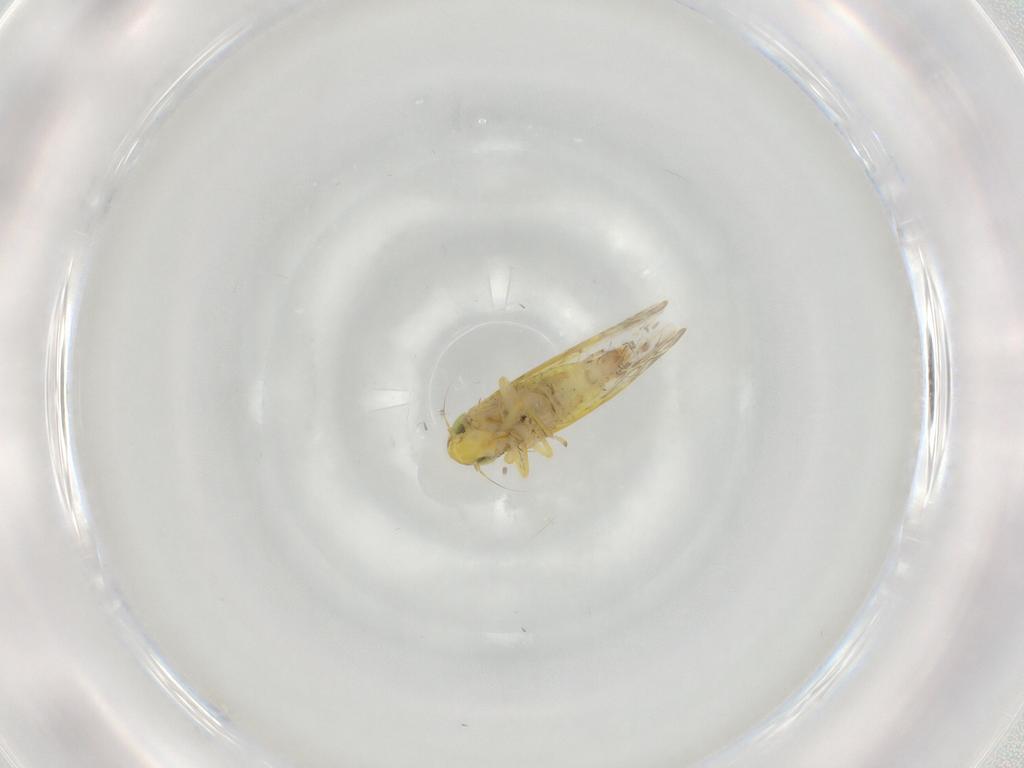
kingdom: Animalia
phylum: Arthropoda
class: Insecta
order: Hemiptera
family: Cicadellidae
